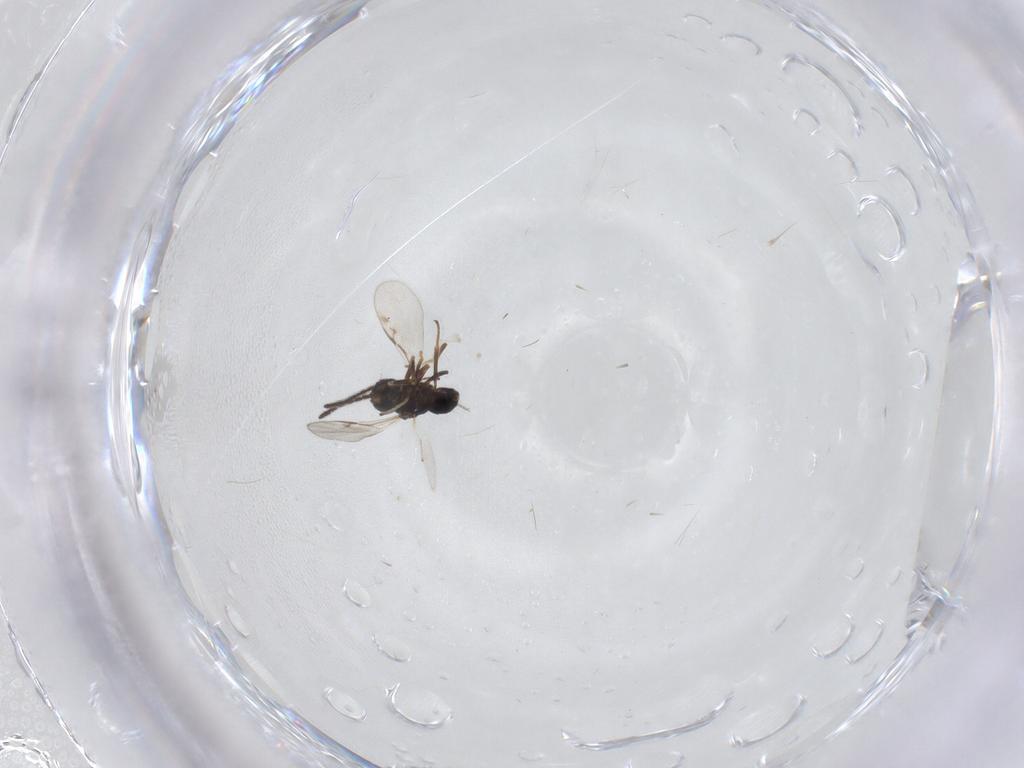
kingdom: Animalia
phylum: Arthropoda
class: Insecta
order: Hymenoptera
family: Encyrtidae
